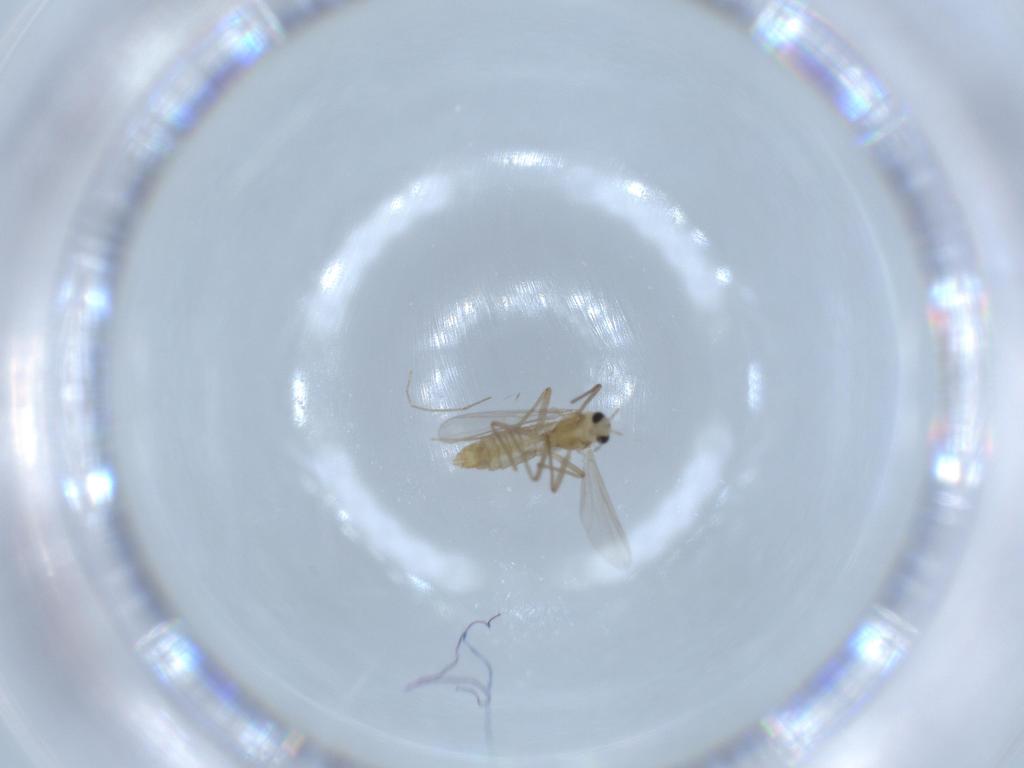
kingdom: Animalia
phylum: Arthropoda
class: Insecta
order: Diptera
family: Chironomidae
